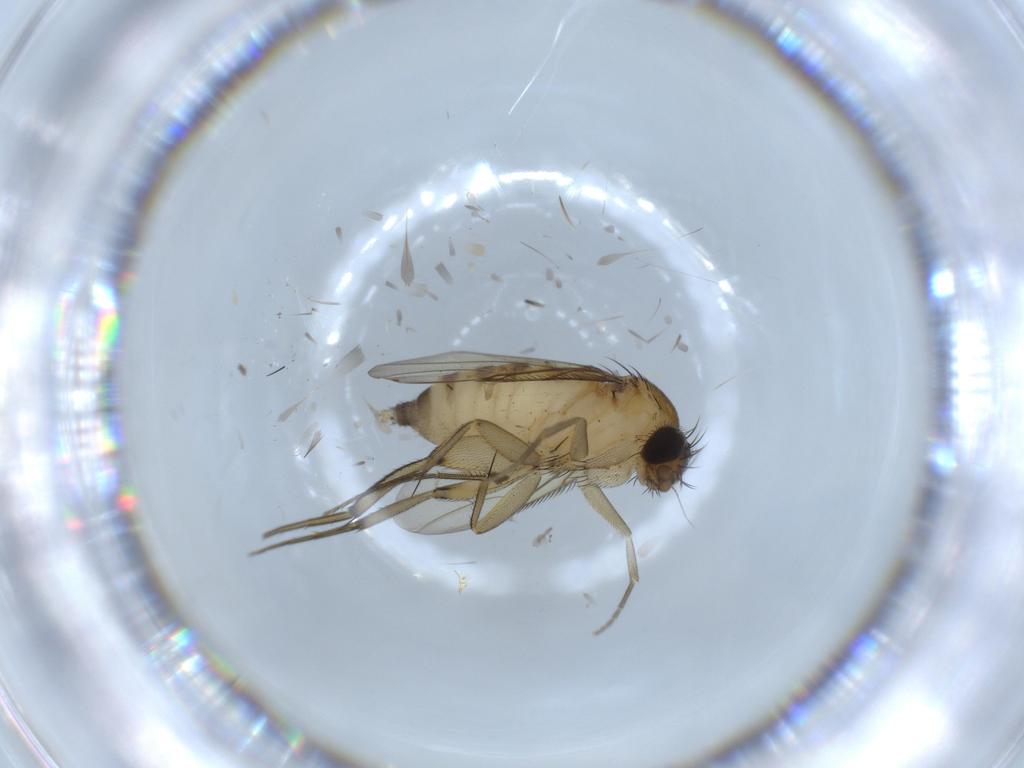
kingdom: Animalia
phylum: Arthropoda
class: Insecta
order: Diptera
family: Phoridae
